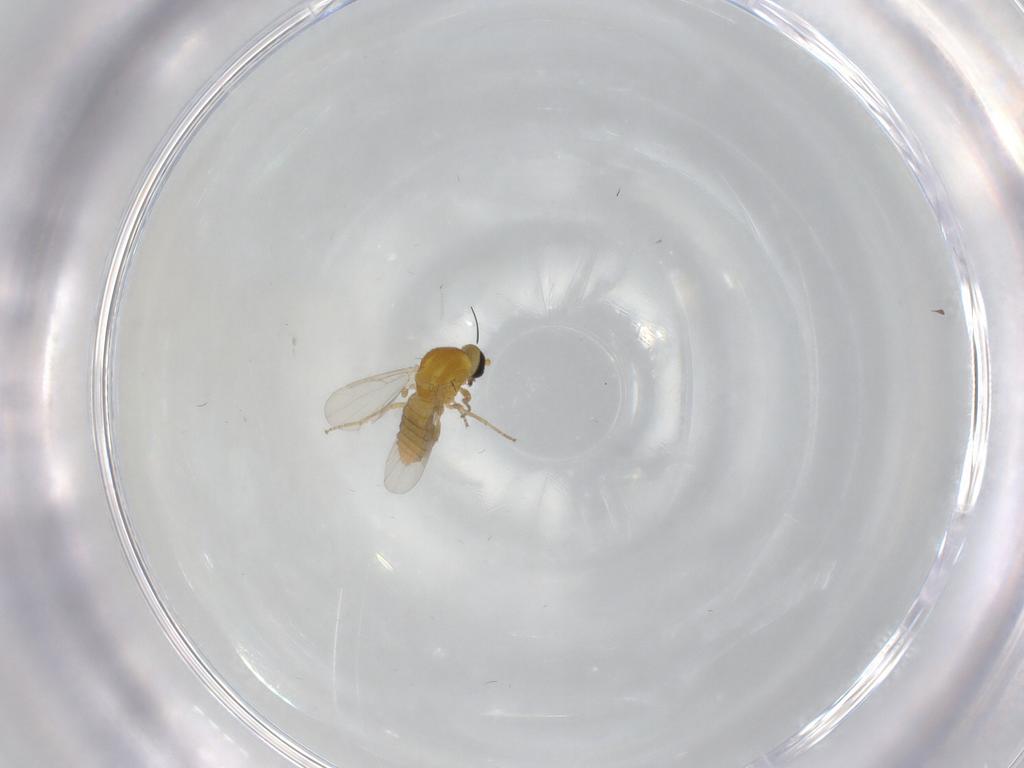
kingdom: Animalia
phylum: Arthropoda
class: Insecta
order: Diptera
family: Ceratopogonidae
